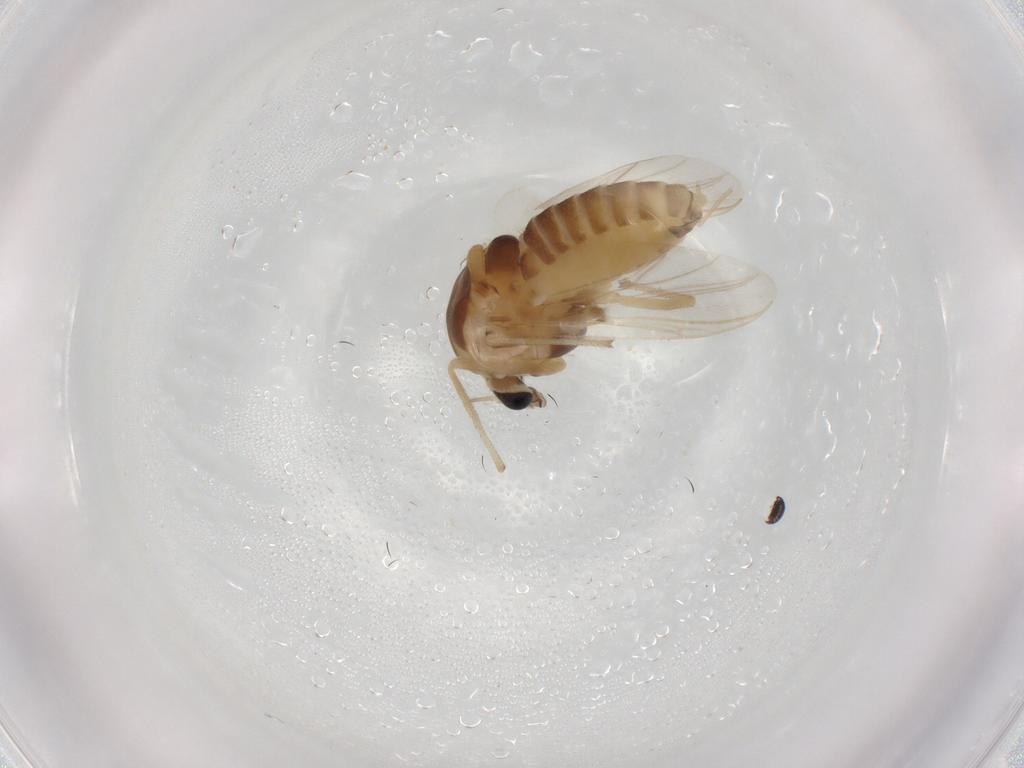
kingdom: Animalia
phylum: Arthropoda
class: Insecta
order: Diptera
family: Chironomidae
